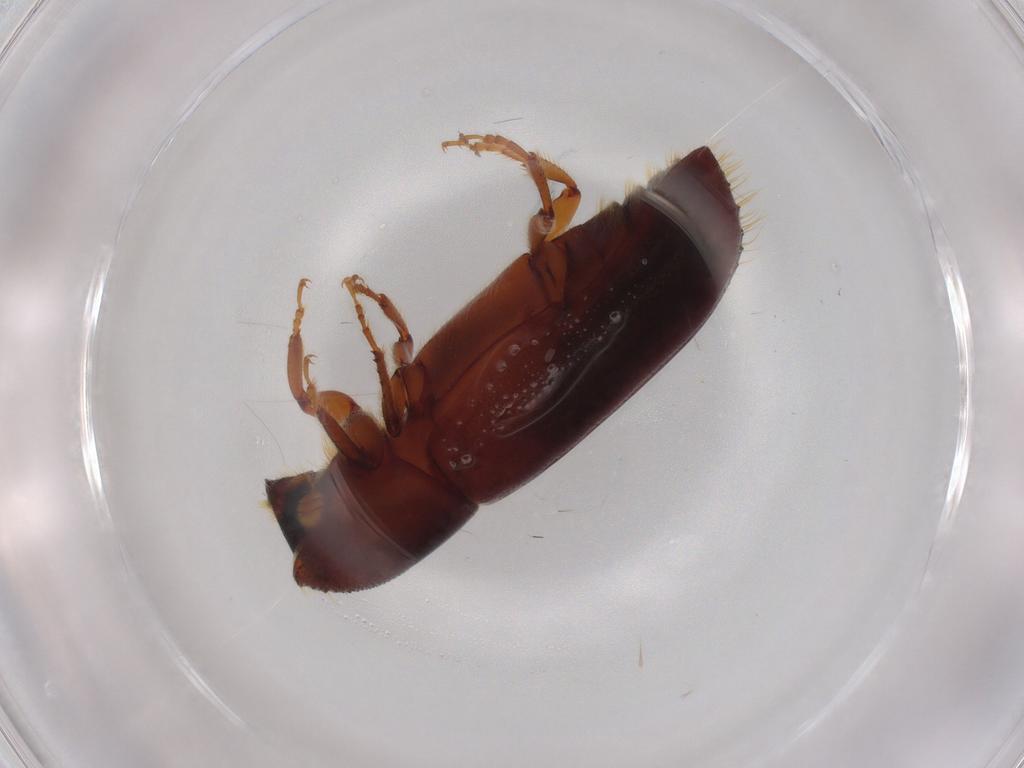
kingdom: Animalia
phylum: Arthropoda
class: Insecta
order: Coleoptera
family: Curculionidae
